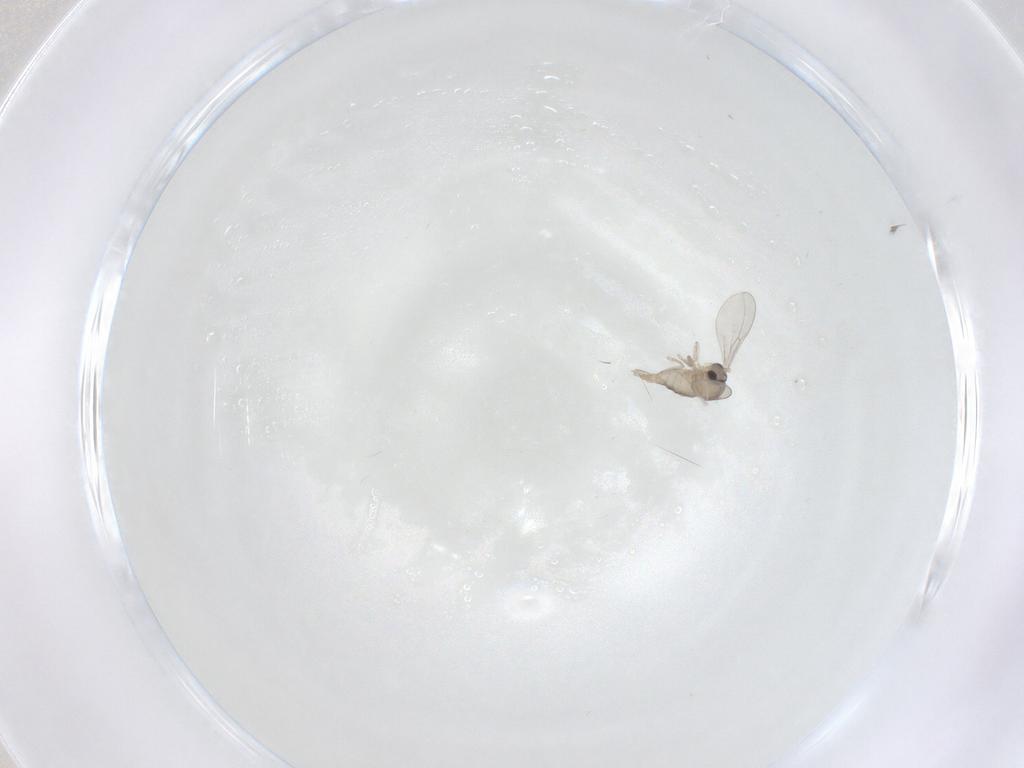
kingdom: Animalia
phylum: Arthropoda
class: Insecta
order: Diptera
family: Cecidomyiidae
